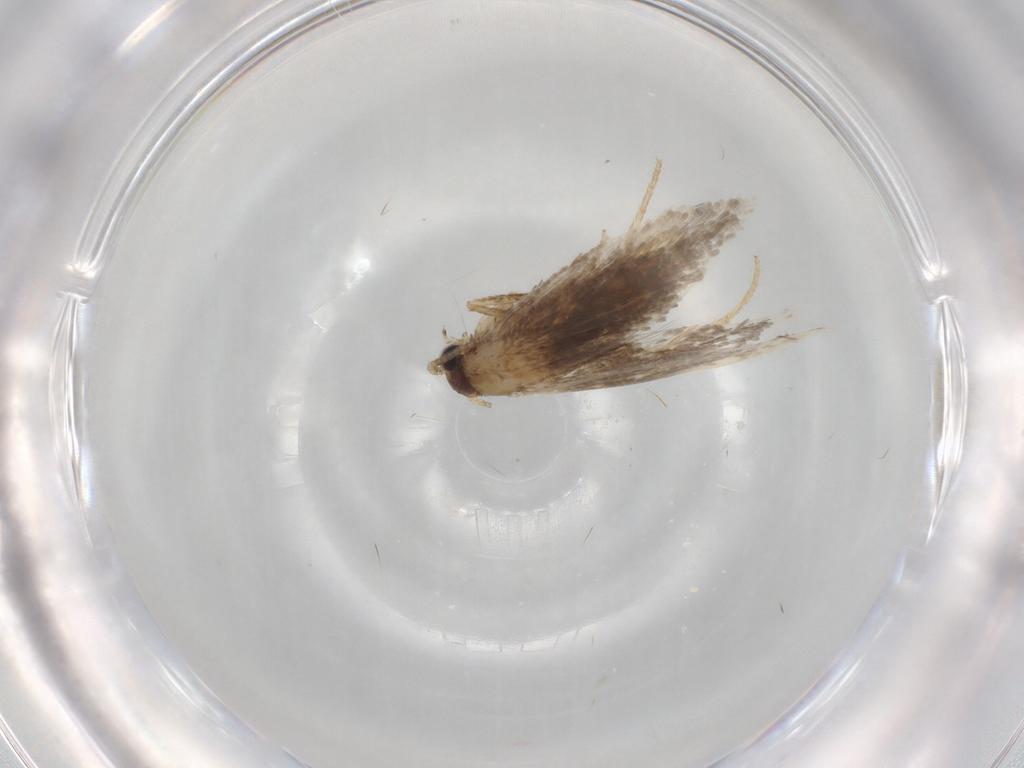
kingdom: Animalia
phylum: Arthropoda
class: Insecta
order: Lepidoptera
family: Tineidae
